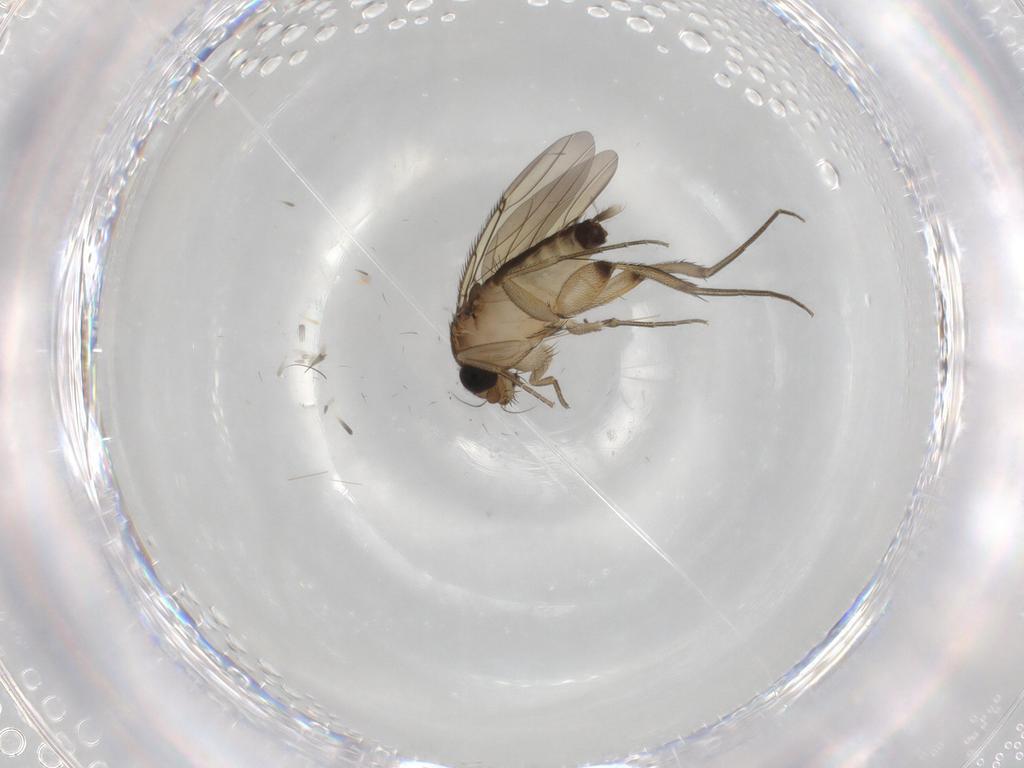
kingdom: Animalia
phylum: Arthropoda
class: Insecta
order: Diptera
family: Phoridae
